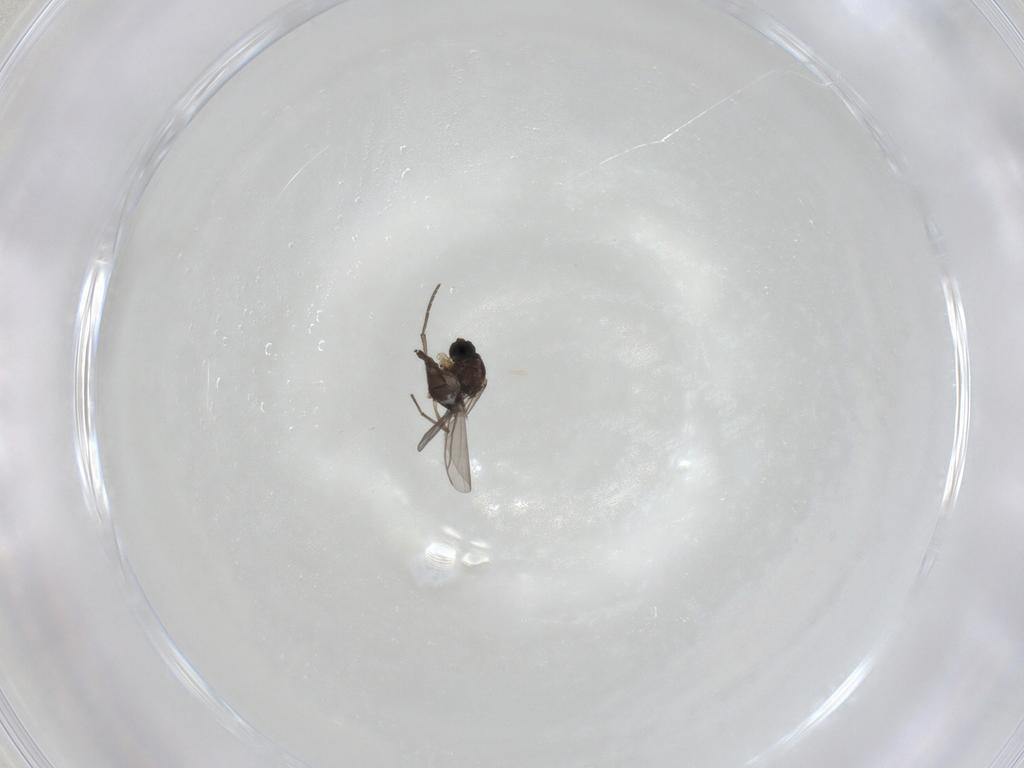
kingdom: Animalia
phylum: Arthropoda
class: Insecta
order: Diptera
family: Sciaridae
